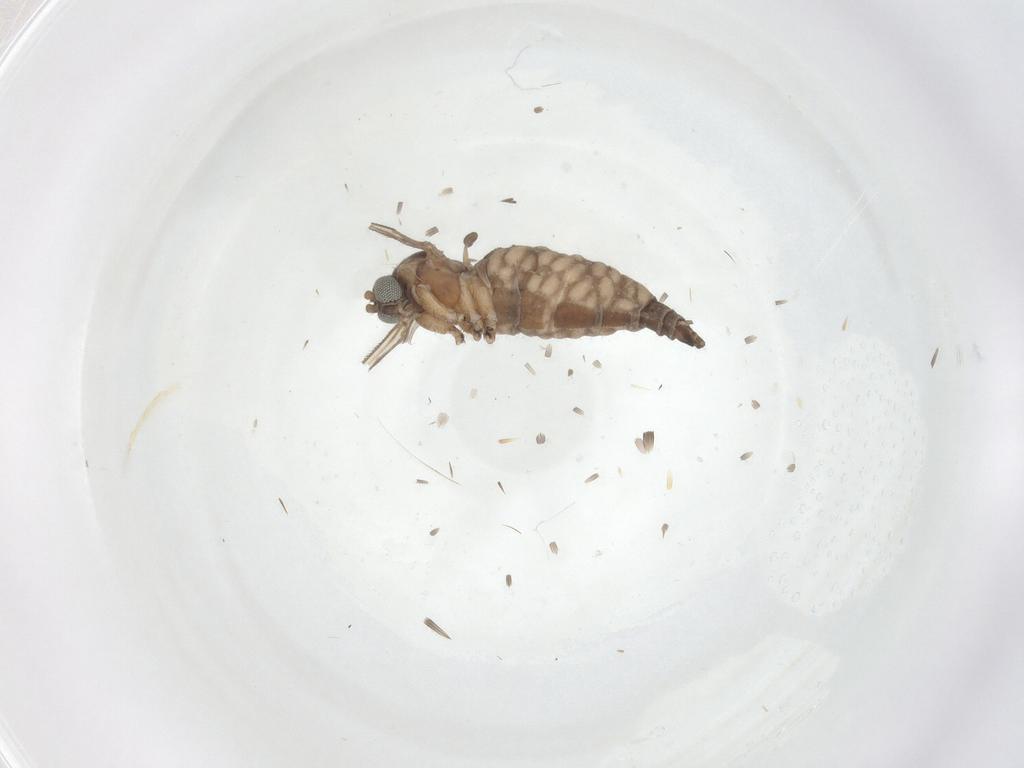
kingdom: Animalia
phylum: Arthropoda
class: Insecta
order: Diptera
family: Sciaridae
